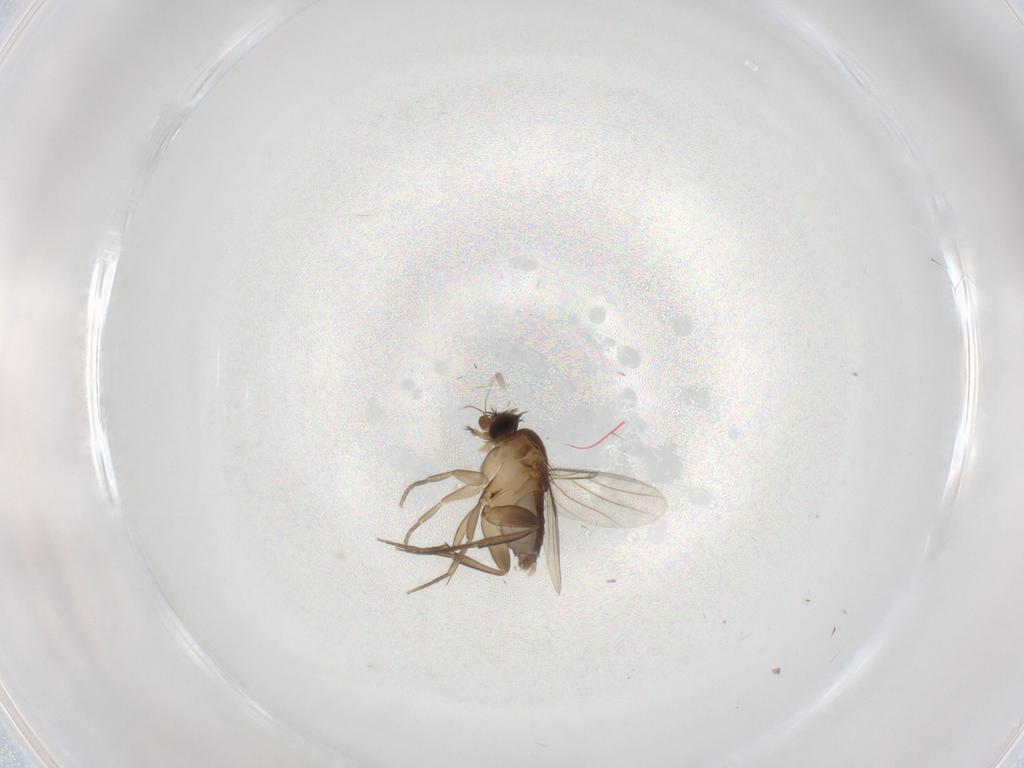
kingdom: Animalia
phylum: Arthropoda
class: Insecta
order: Diptera
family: Phoridae
